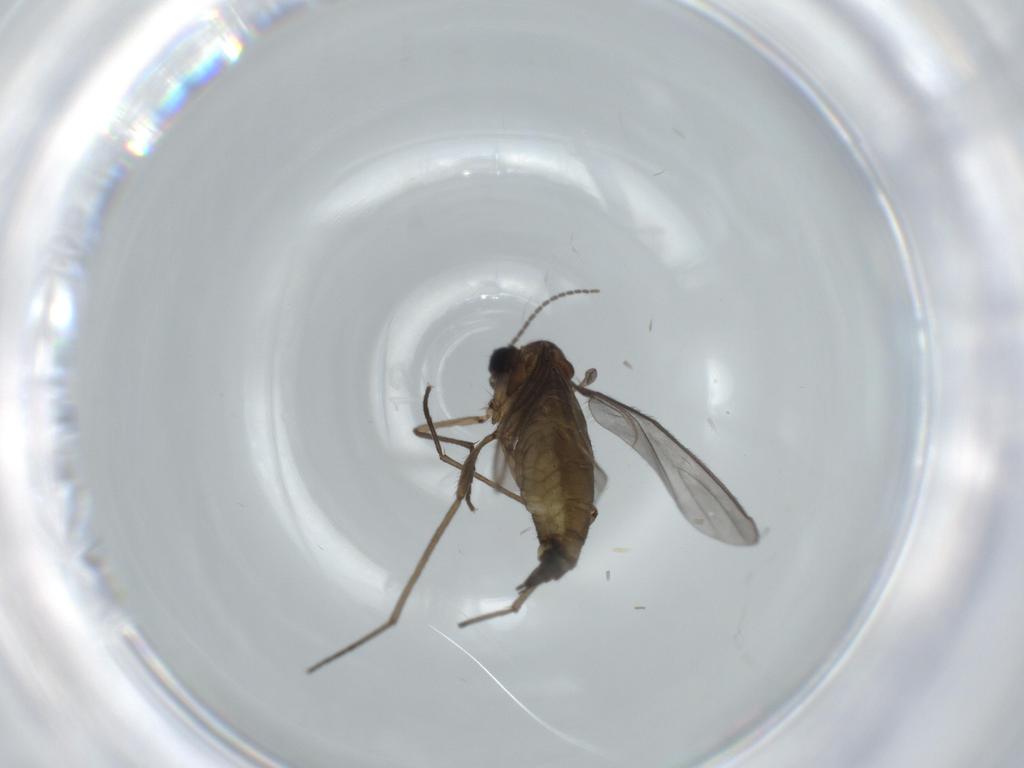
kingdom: Animalia
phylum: Arthropoda
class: Insecta
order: Diptera
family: Sciaridae
